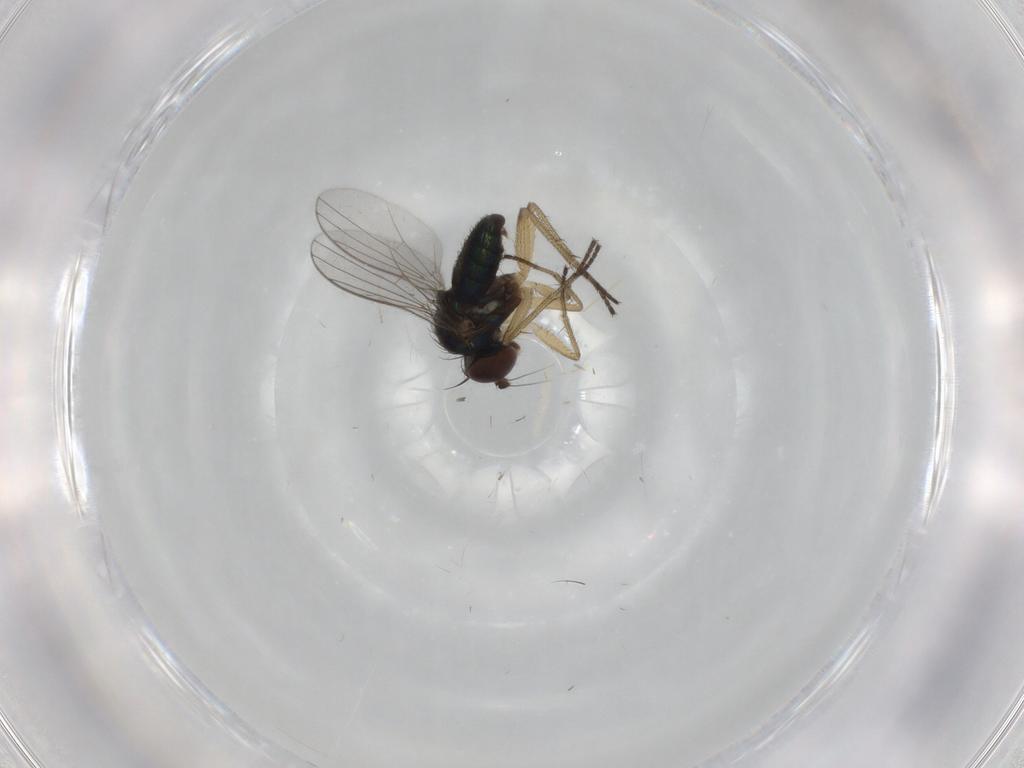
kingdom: Animalia
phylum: Arthropoda
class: Insecta
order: Diptera
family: Dolichopodidae
